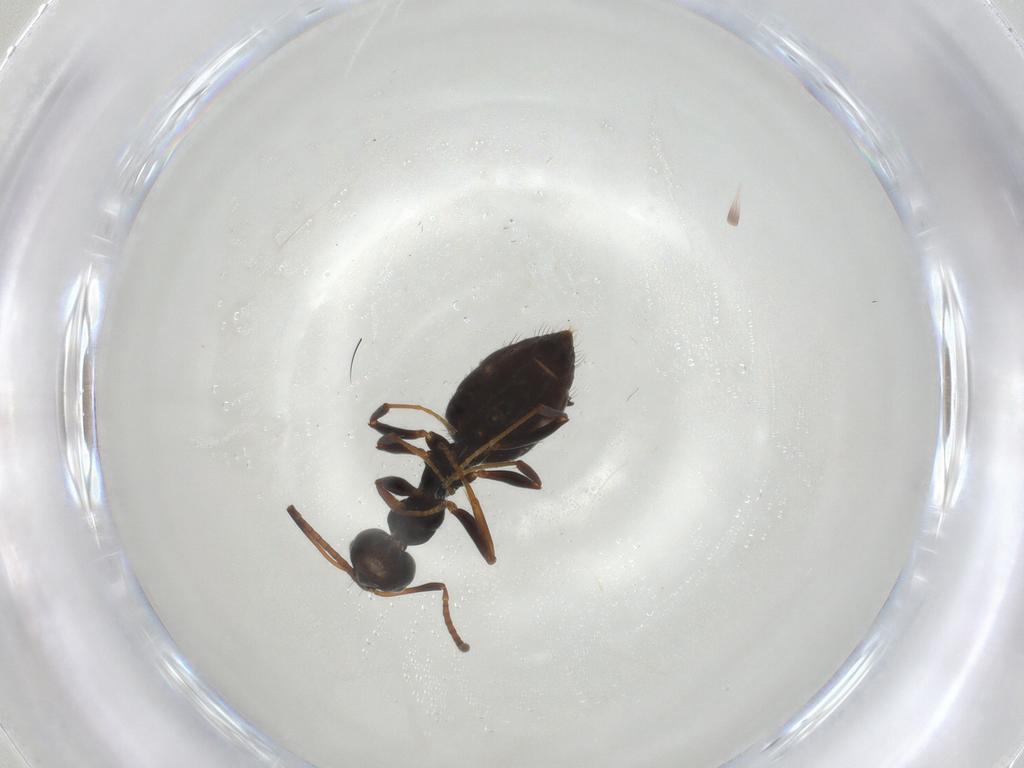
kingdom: Animalia
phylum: Arthropoda
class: Insecta
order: Hymenoptera
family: Formicidae
